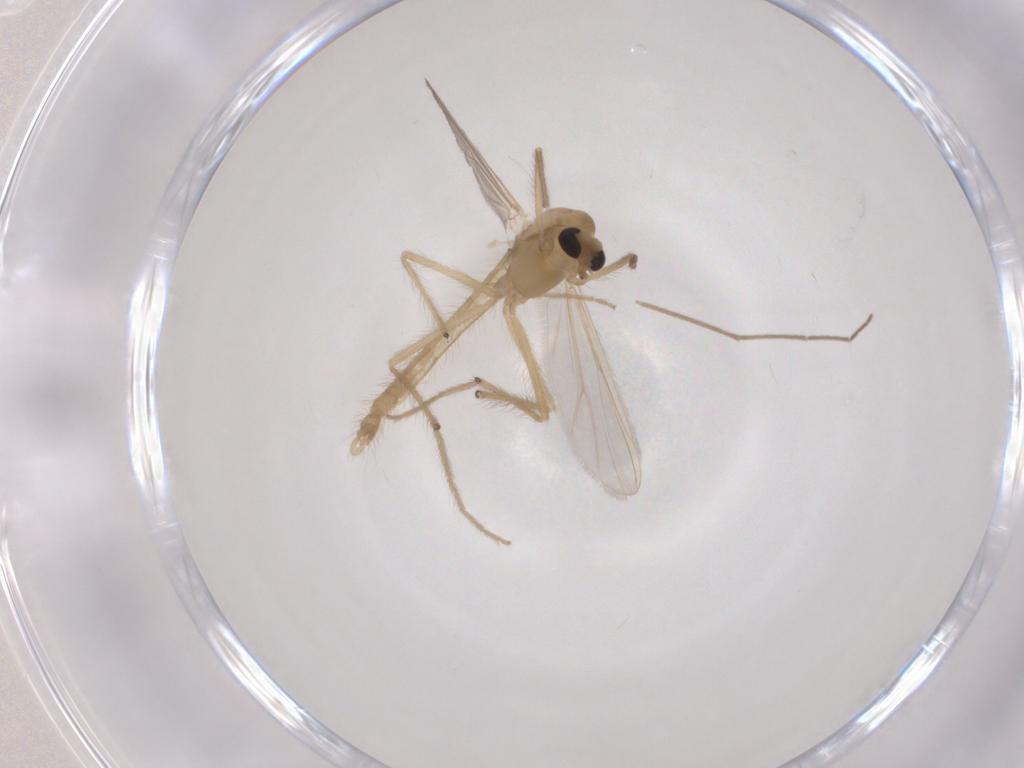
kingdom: Animalia
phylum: Arthropoda
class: Insecta
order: Diptera
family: Chironomidae
